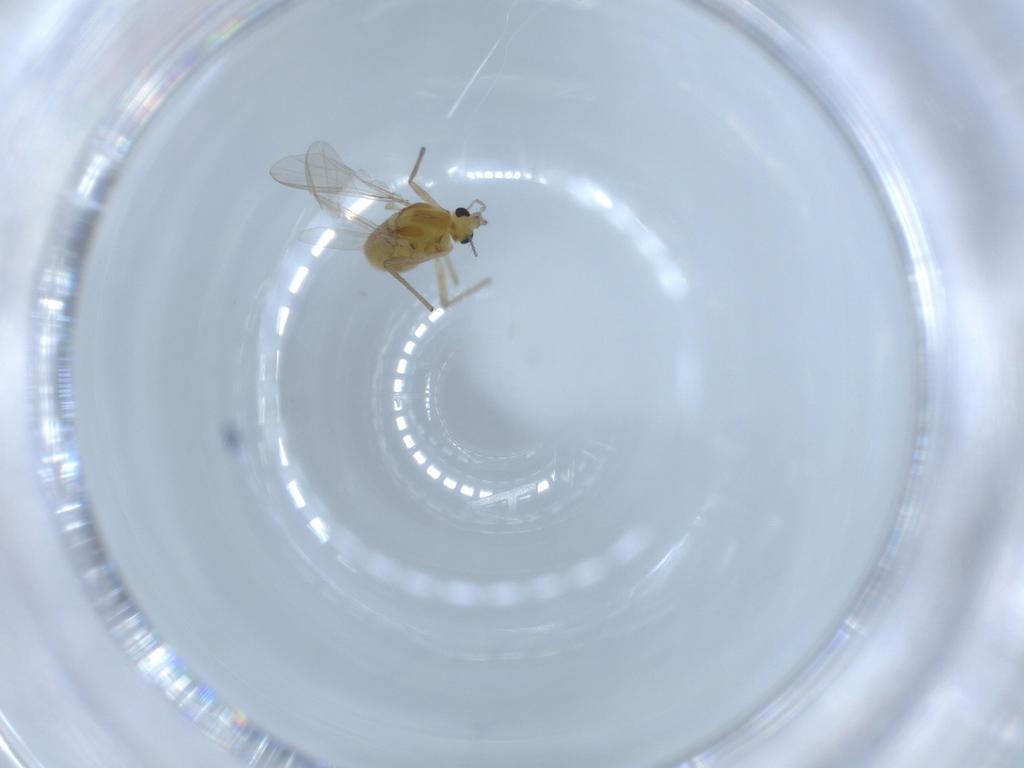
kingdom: Animalia
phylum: Arthropoda
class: Insecta
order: Diptera
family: Chironomidae
